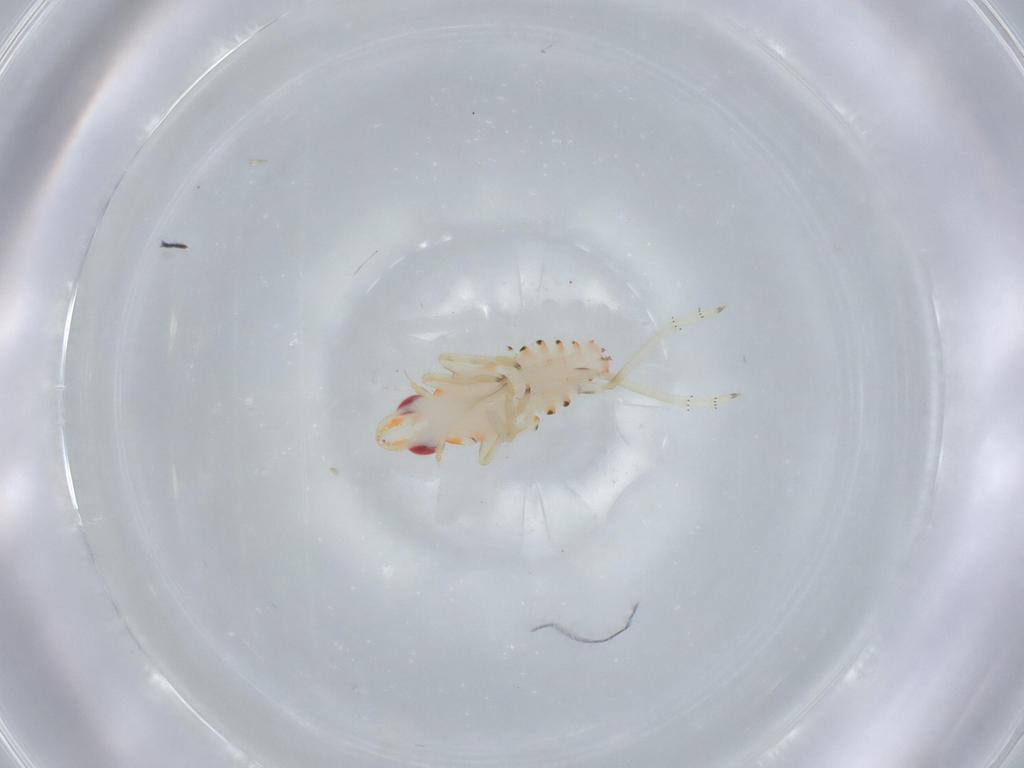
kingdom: Animalia
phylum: Arthropoda
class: Insecta
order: Hemiptera
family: Tropiduchidae
